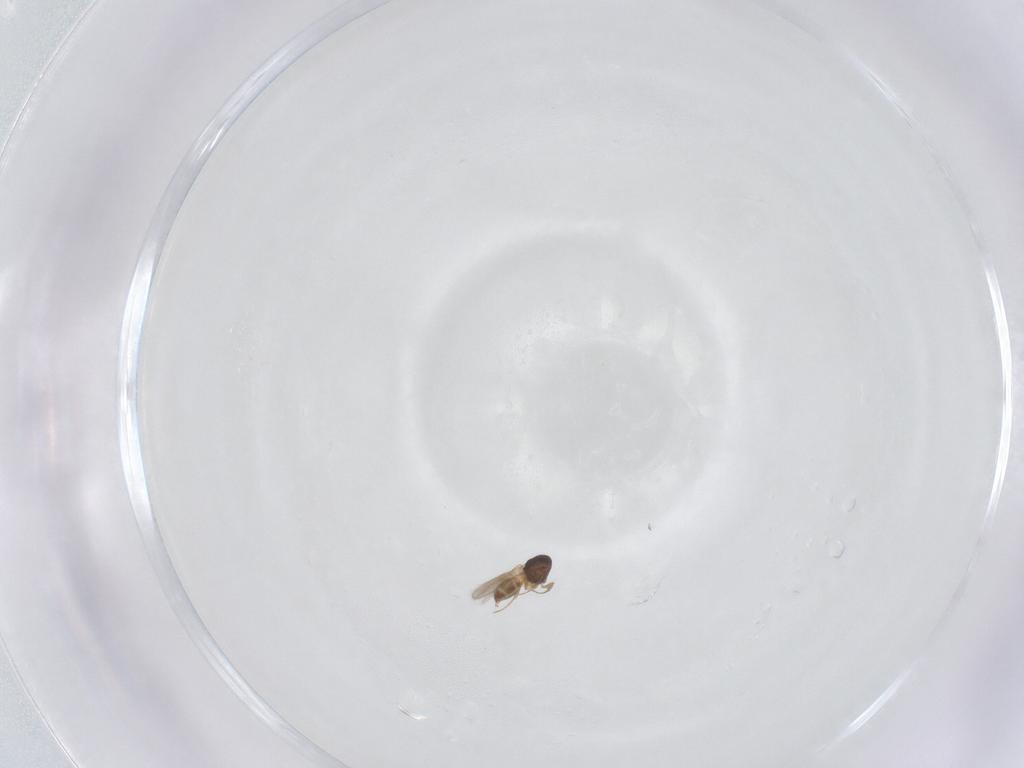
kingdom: Animalia
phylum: Arthropoda
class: Insecta
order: Hymenoptera
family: Scelionidae
